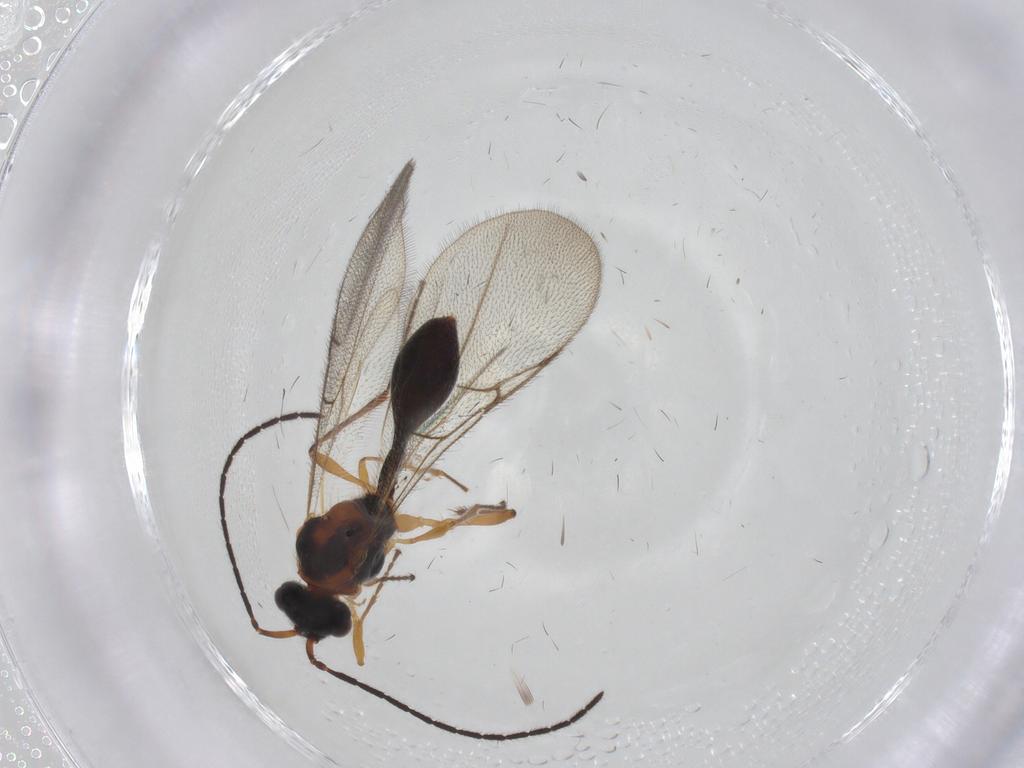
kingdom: Animalia
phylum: Arthropoda
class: Insecta
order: Hymenoptera
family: Diapriidae
